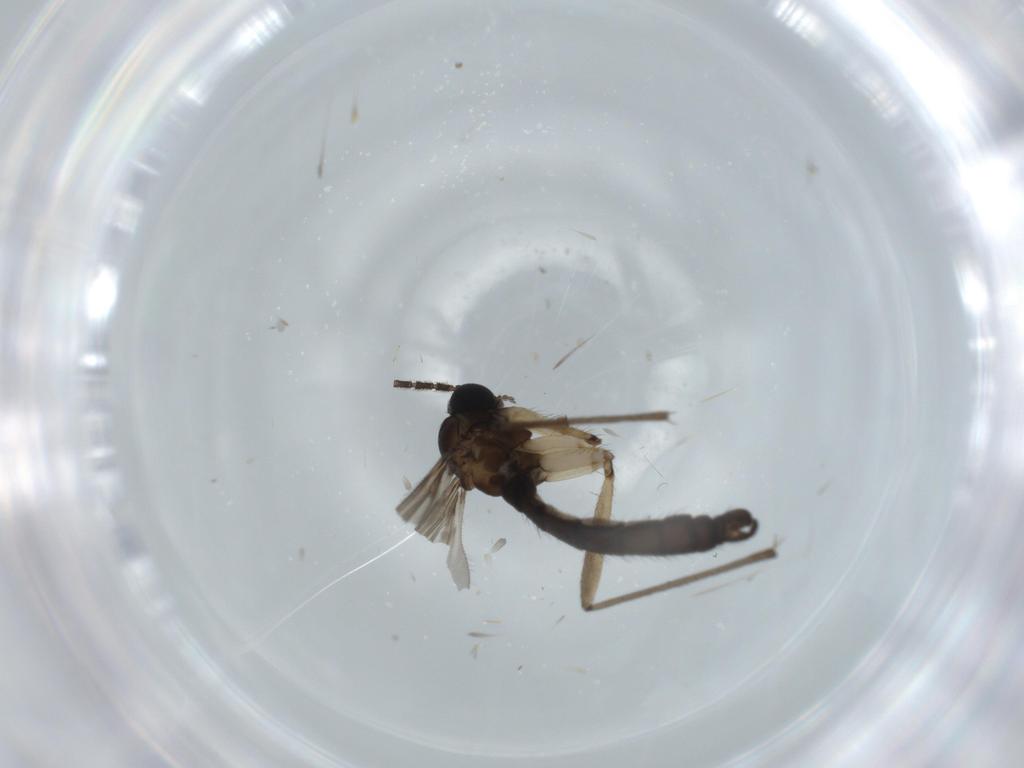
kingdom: Animalia
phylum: Arthropoda
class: Insecta
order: Diptera
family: Sciaridae
